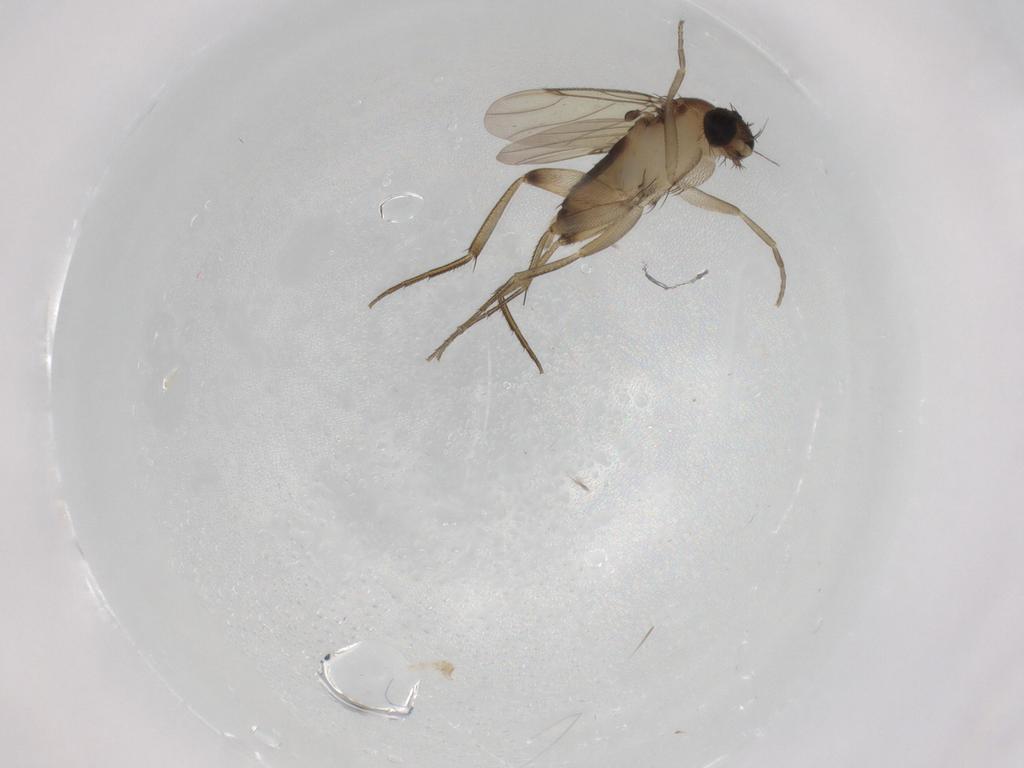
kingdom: Animalia
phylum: Arthropoda
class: Insecta
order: Diptera
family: Phoridae
